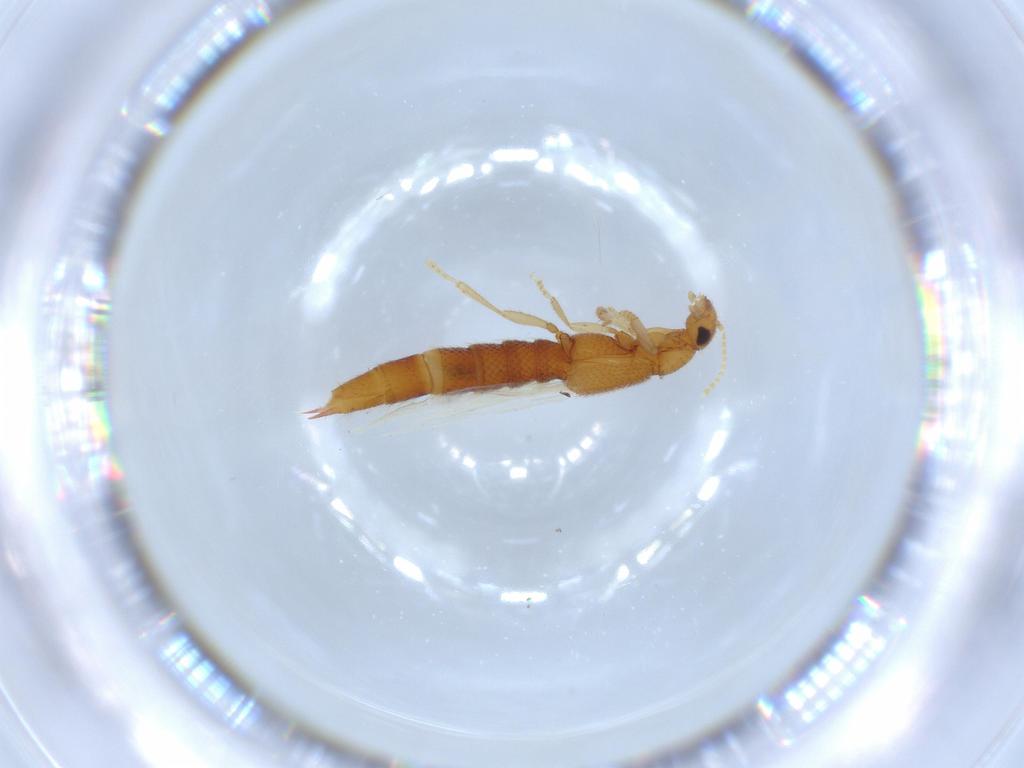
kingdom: Animalia
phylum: Arthropoda
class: Insecta
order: Coleoptera
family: Staphylinidae
